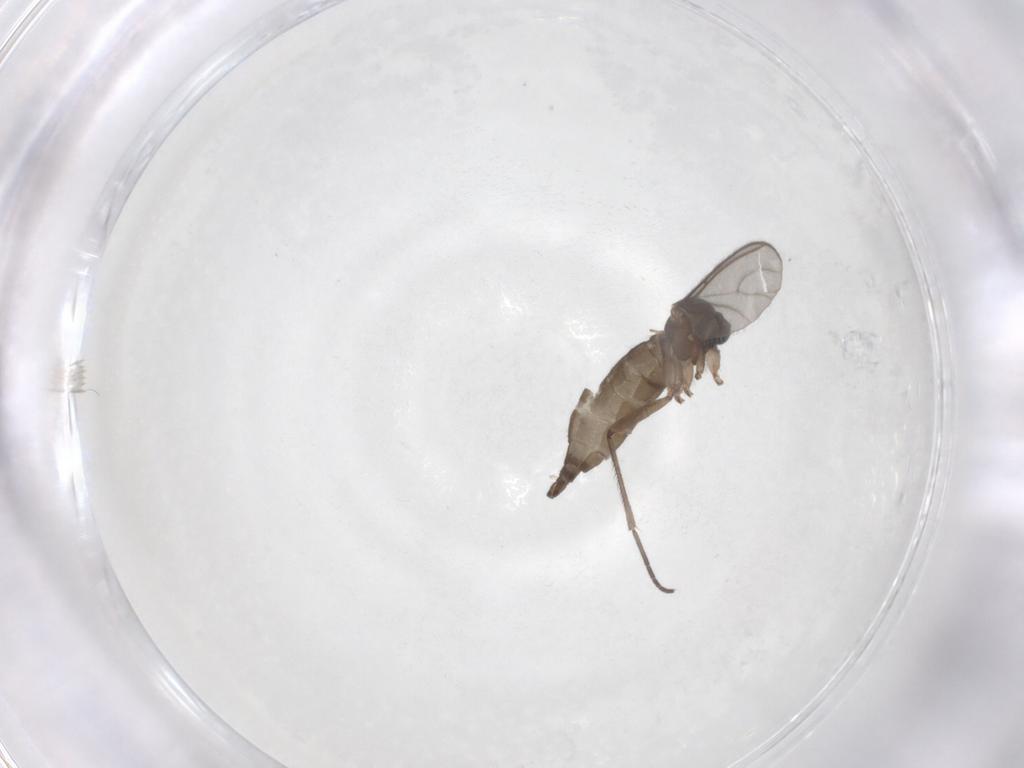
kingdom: Animalia
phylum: Arthropoda
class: Insecta
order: Diptera
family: Sciaridae
